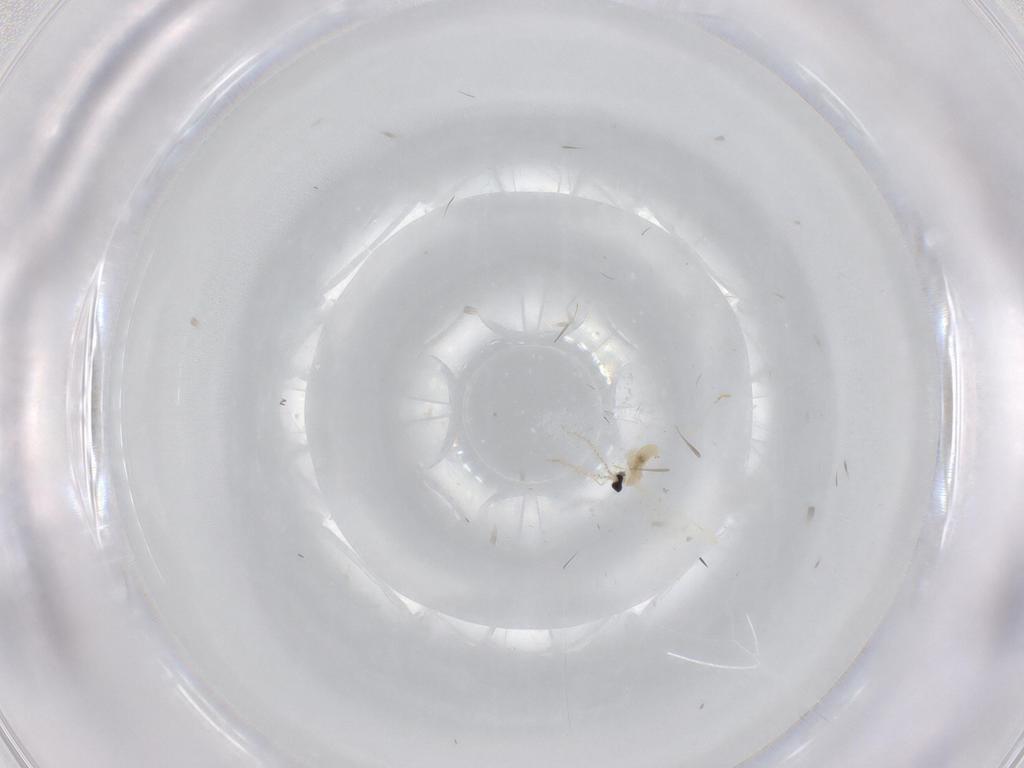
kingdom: Animalia
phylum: Arthropoda
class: Insecta
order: Diptera
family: Cecidomyiidae
